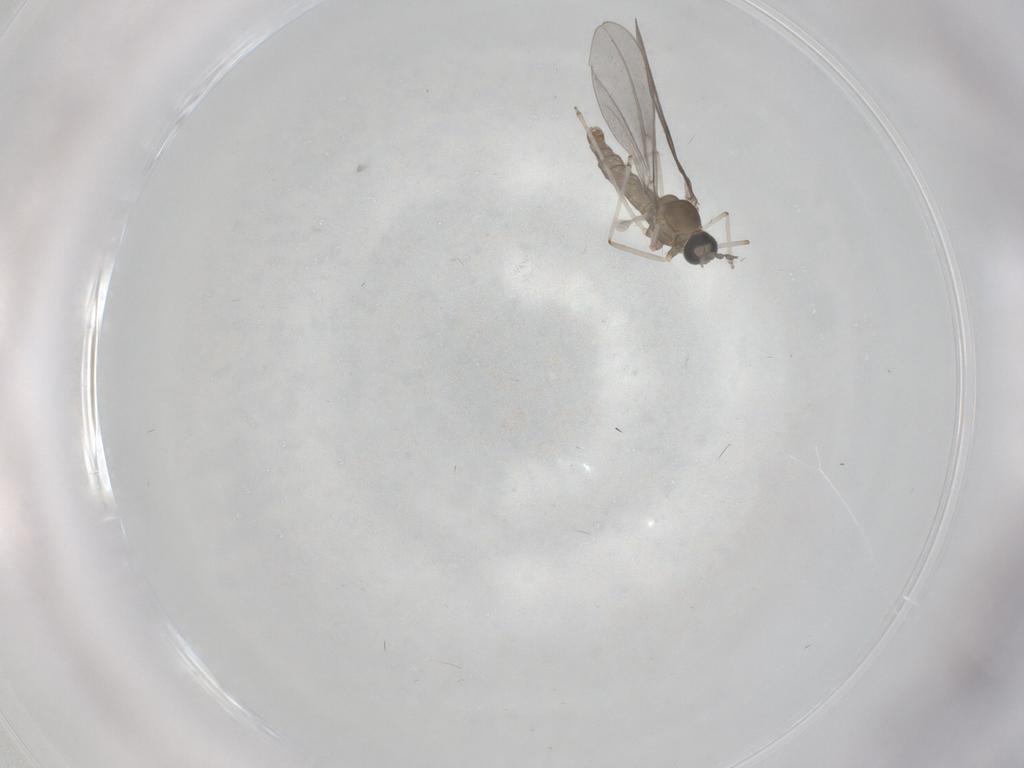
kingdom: Animalia
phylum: Arthropoda
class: Insecta
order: Diptera
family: Cecidomyiidae
